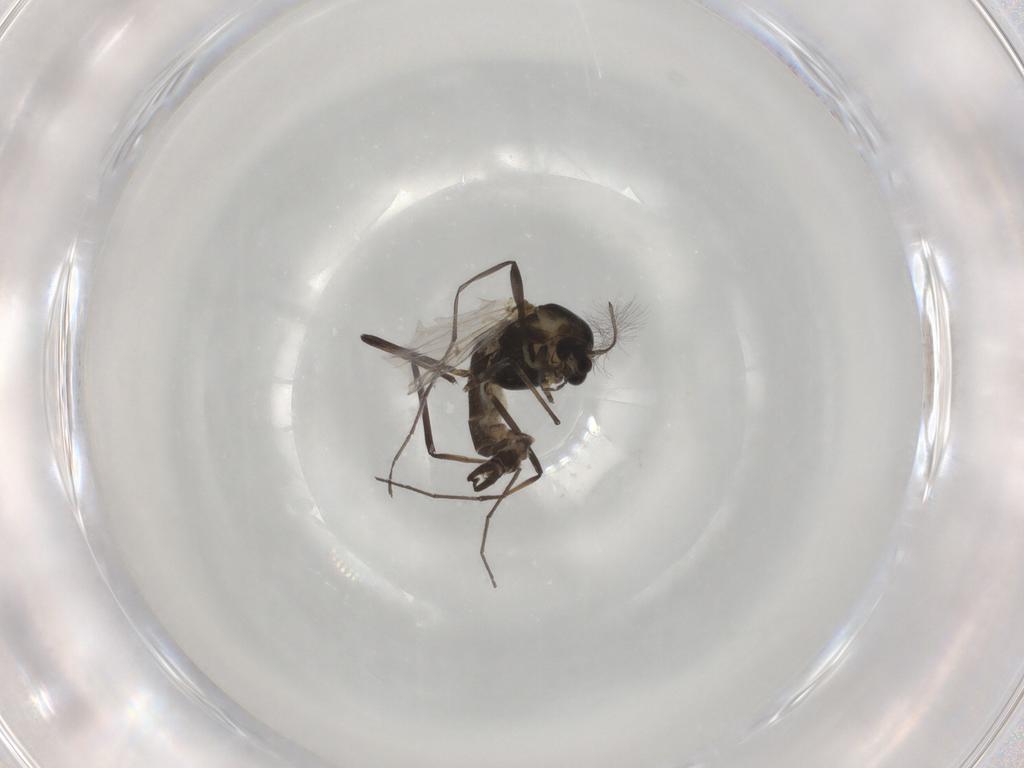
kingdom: Animalia
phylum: Arthropoda
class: Insecta
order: Diptera
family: Chironomidae
